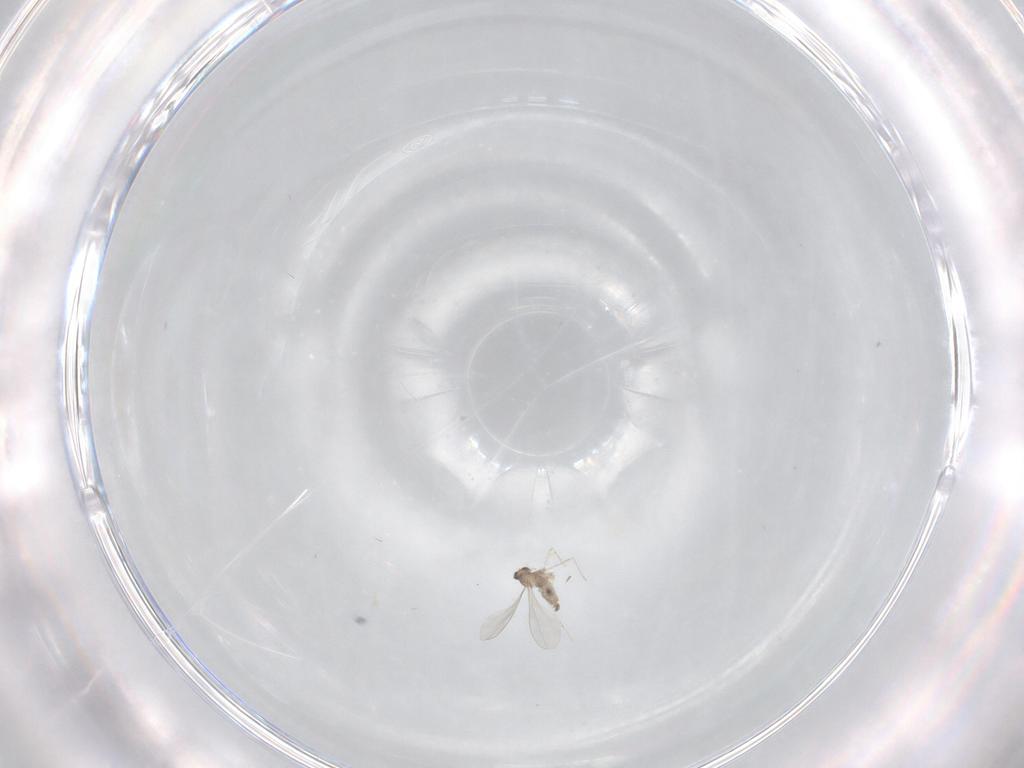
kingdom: Animalia
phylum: Arthropoda
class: Insecta
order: Diptera
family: Cecidomyiidae
